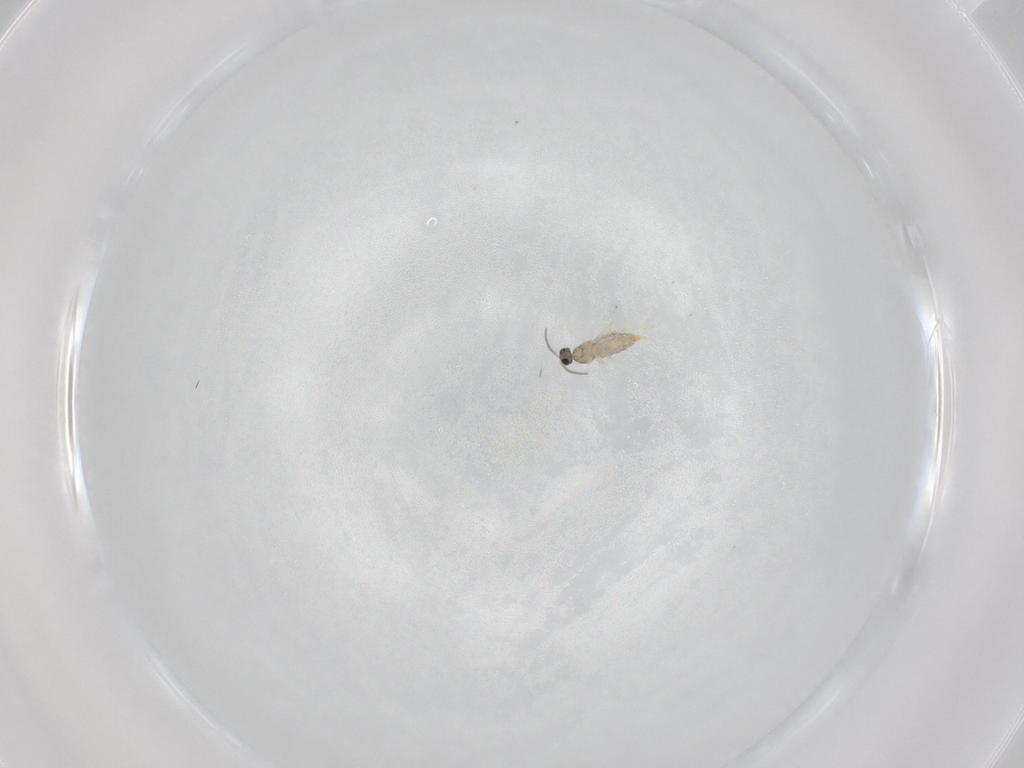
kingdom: Animalia
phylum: Arthropoda
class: Insecta
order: Diptera
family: Cecidomyiidae
